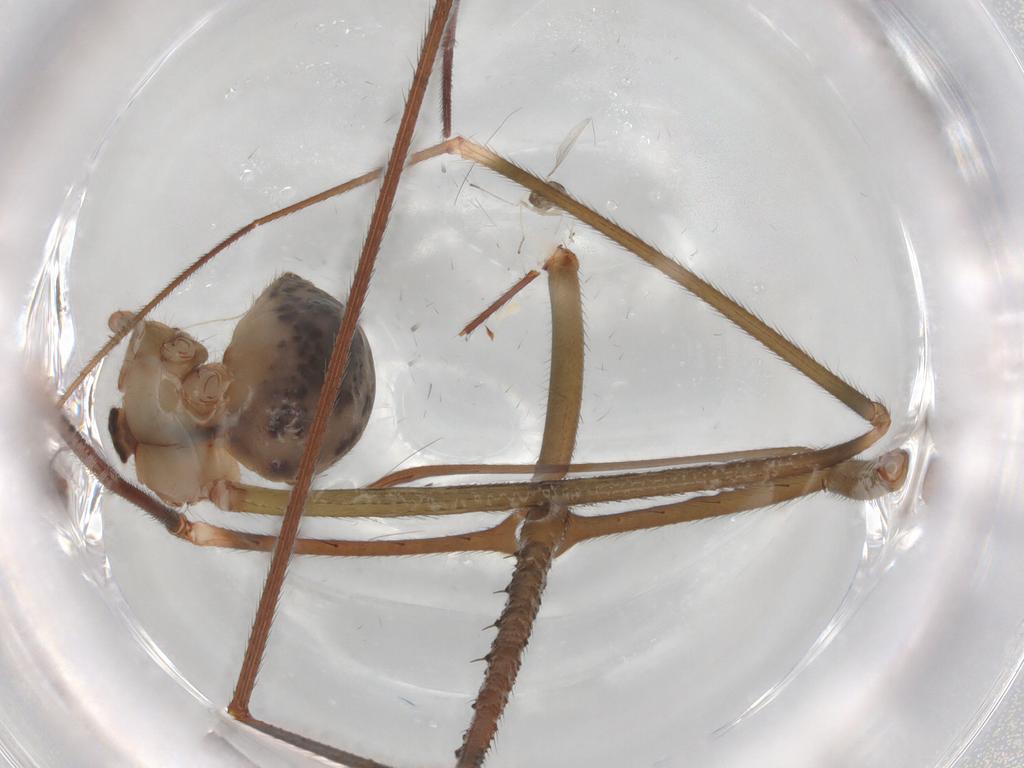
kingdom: Animalia
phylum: Arthropoda
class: Arachnida
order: Araneae
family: Pholcidae
